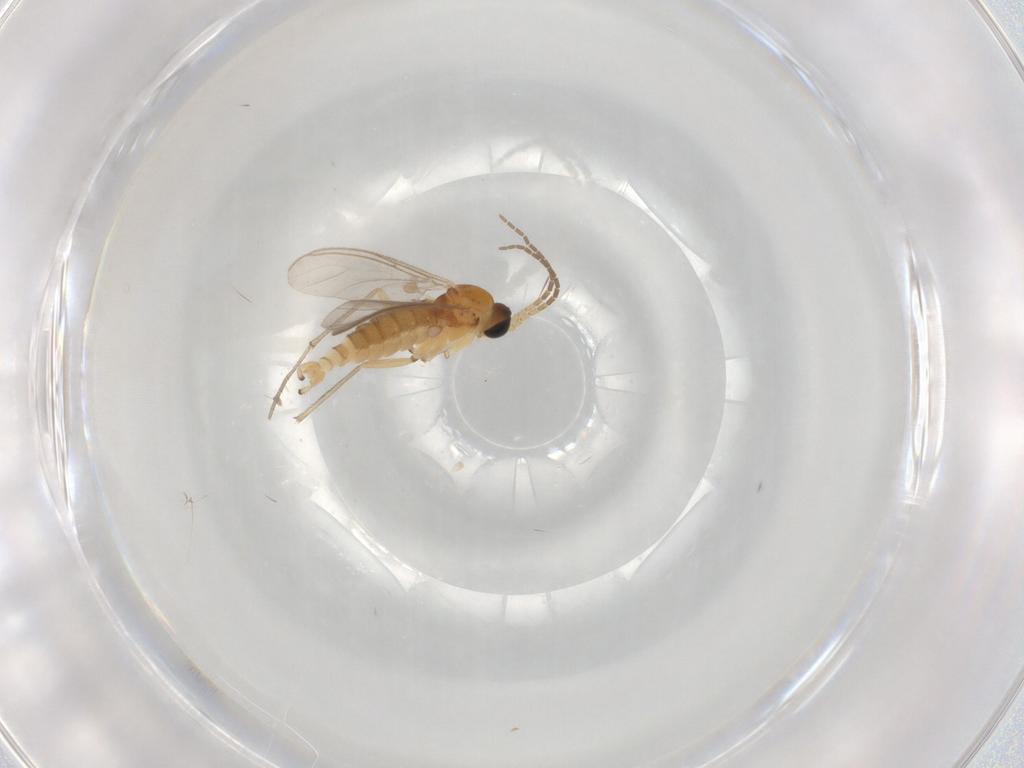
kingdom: Animalia
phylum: Arthropoda
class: Insecta
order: Diptera
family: Sciaridae
